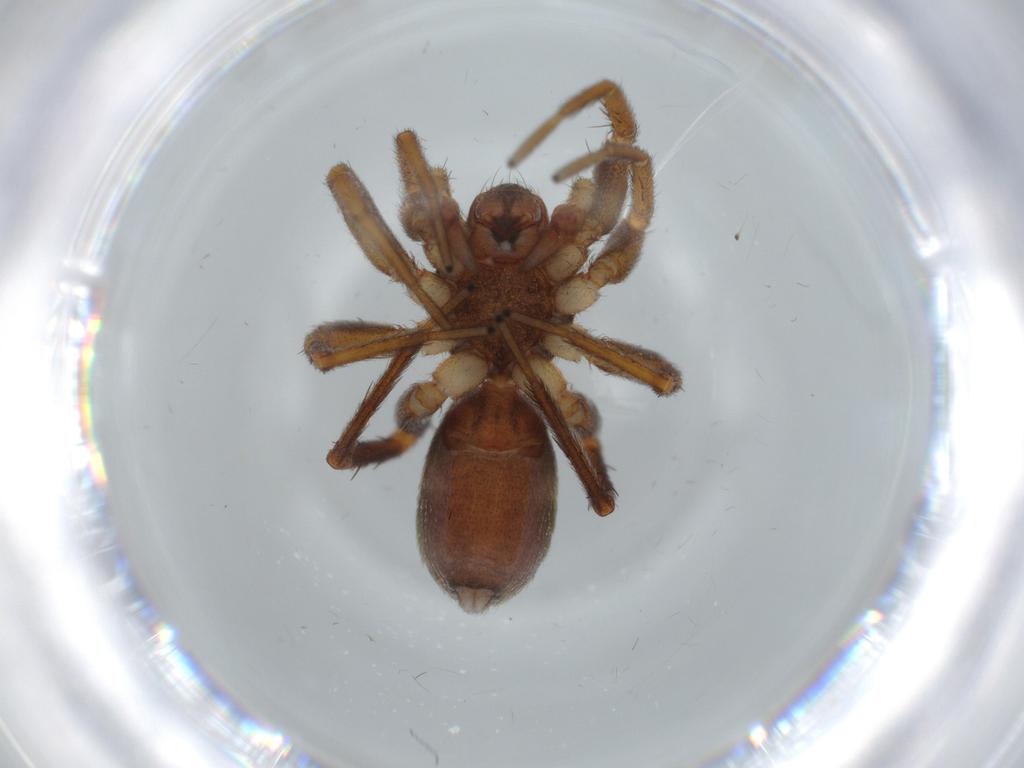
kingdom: Animalia
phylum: Arthropoda
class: Arachnida
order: Araneae
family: Corinnidae
